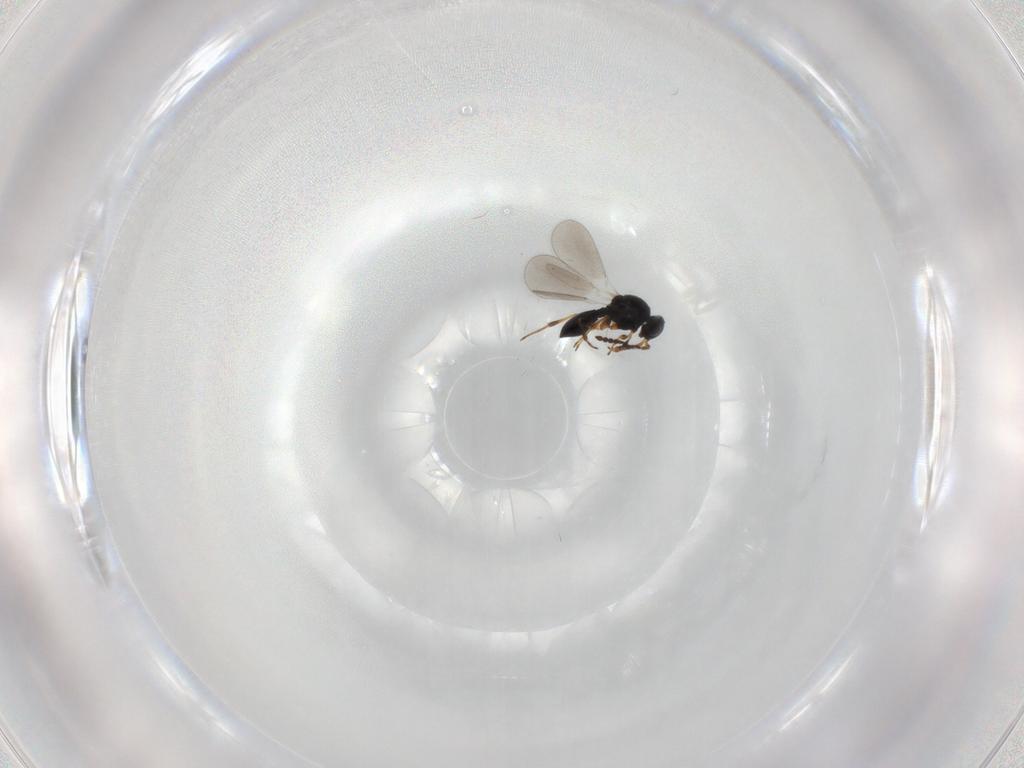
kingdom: Animalia
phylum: Arthropoda
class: Insecta
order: Hymenoptera
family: Platygastridae
